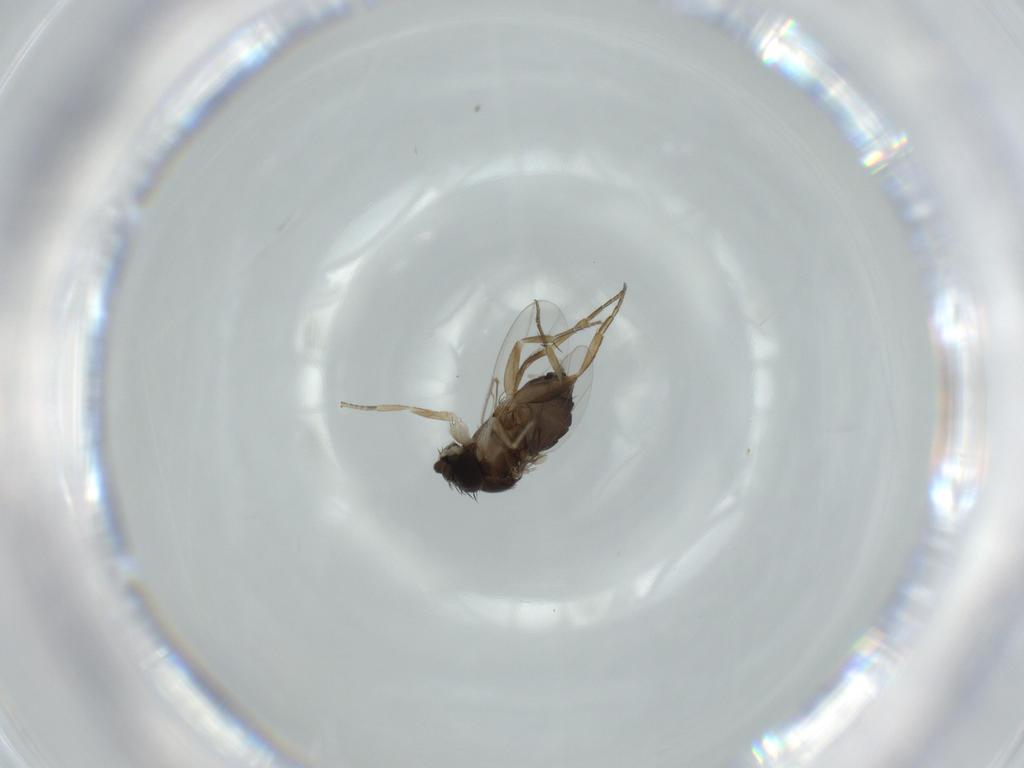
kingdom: Animalia
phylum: Arthropoda
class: Insecta
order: Diptera
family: Phoridae
